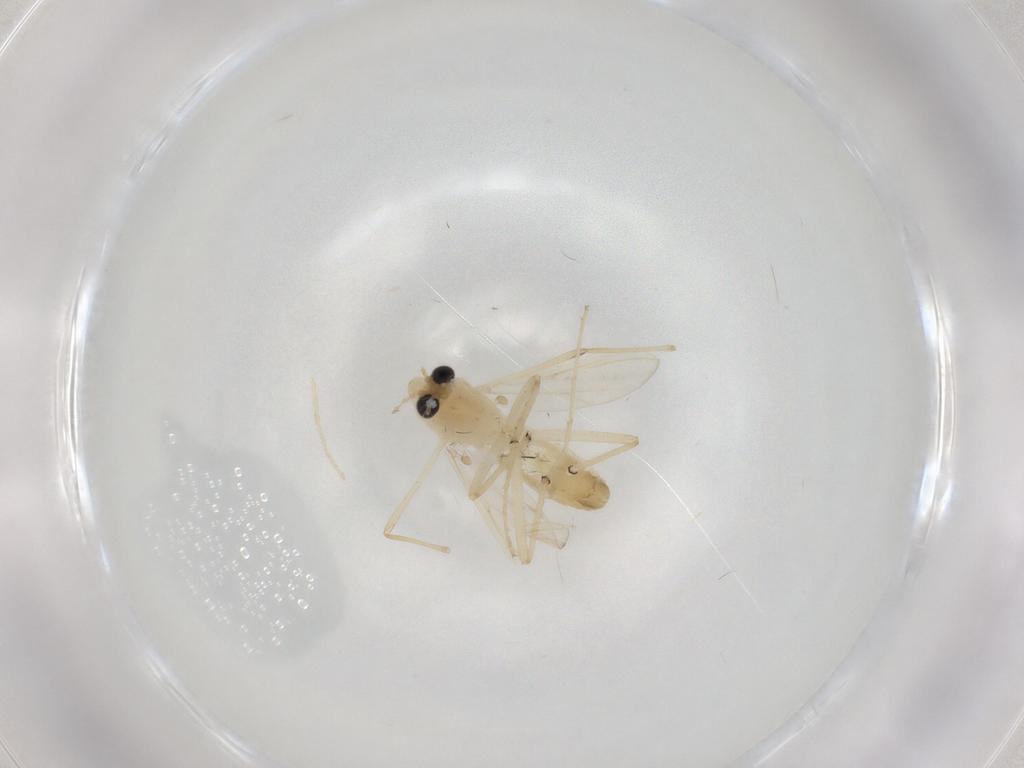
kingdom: Animalia
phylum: Arthropoda
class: Insecta
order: Diptera
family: Chironomidae
